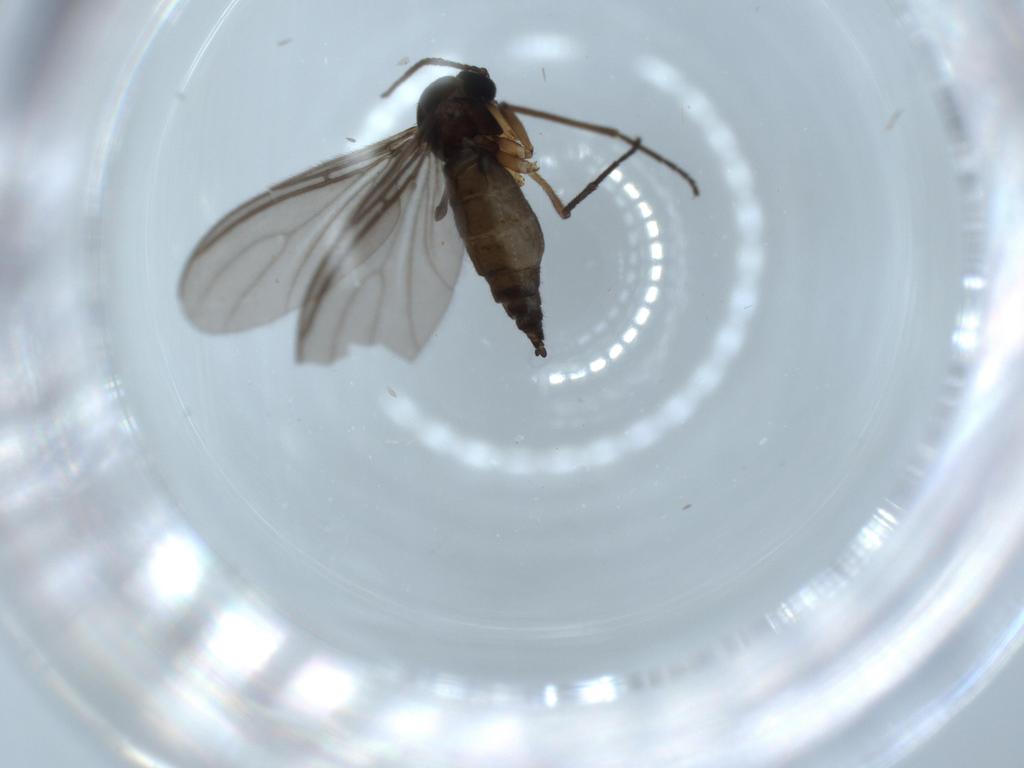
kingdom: Animalia
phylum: Arthropoda
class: Insecta
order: Diptera
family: Sciaridae
